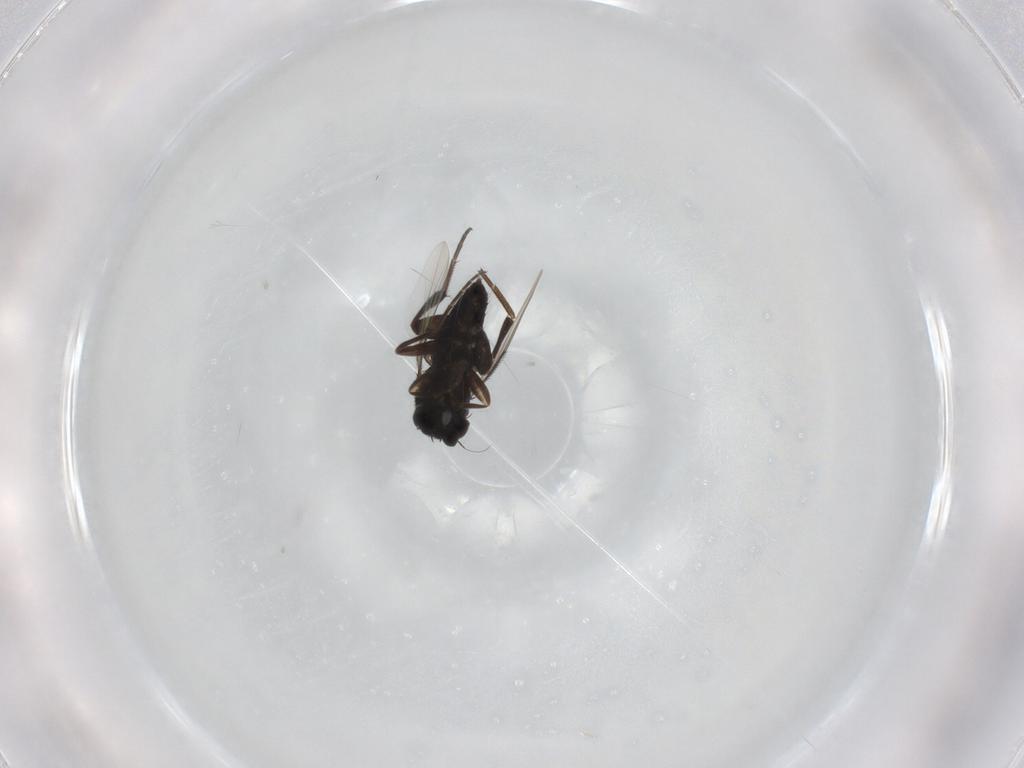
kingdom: Animalia
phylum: Arthropoda
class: Insecta
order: Diptera
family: Phoridae
